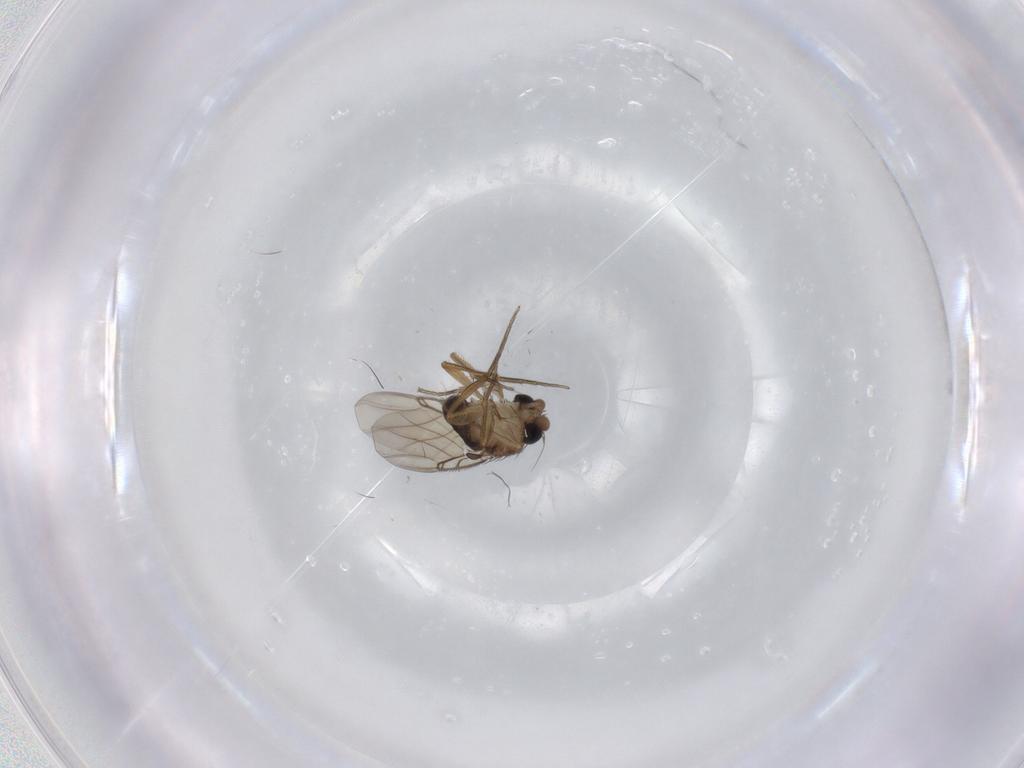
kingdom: Animalia
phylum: Arthropoda
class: Insecta
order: Diptera
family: Phoridae
